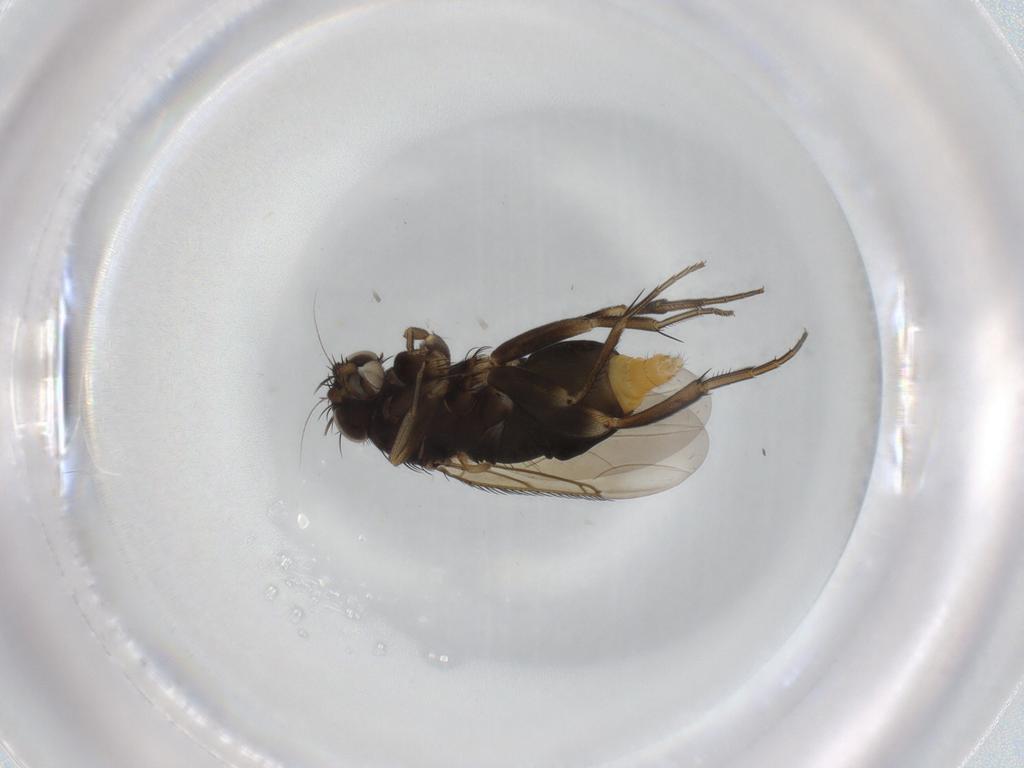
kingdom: Animalia
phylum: Arthropoda
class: Insecta
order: Diptera
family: Phoridae
